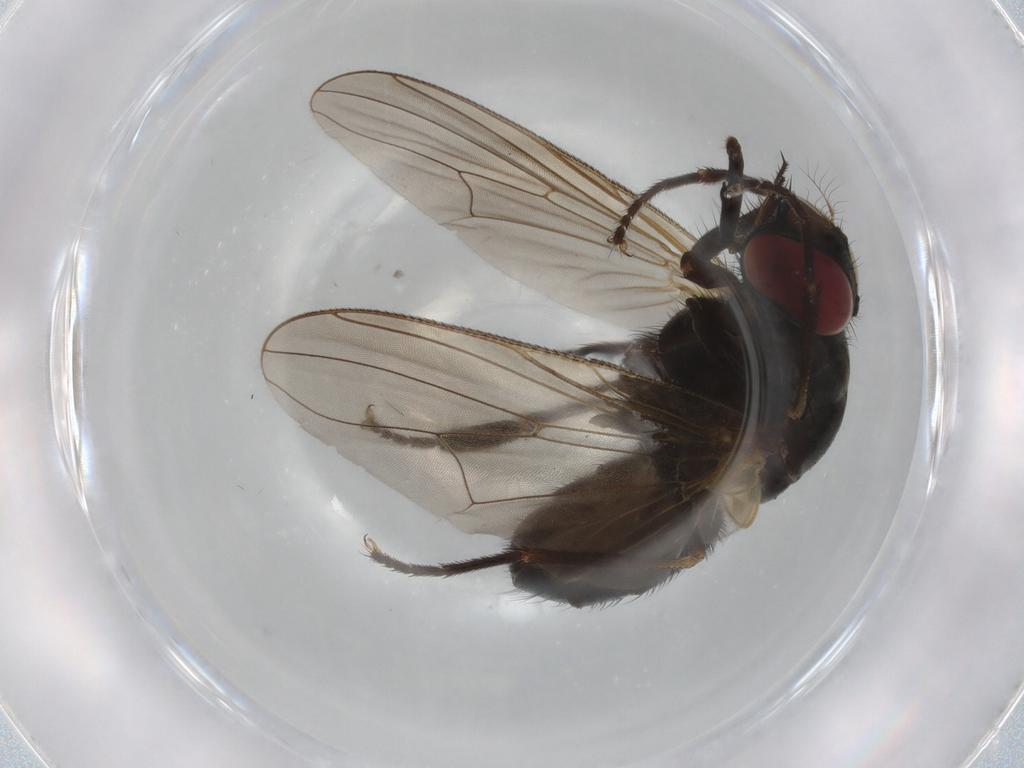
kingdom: Animalia
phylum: Arthropoda
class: Insecta
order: Diptera
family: Muscidae
